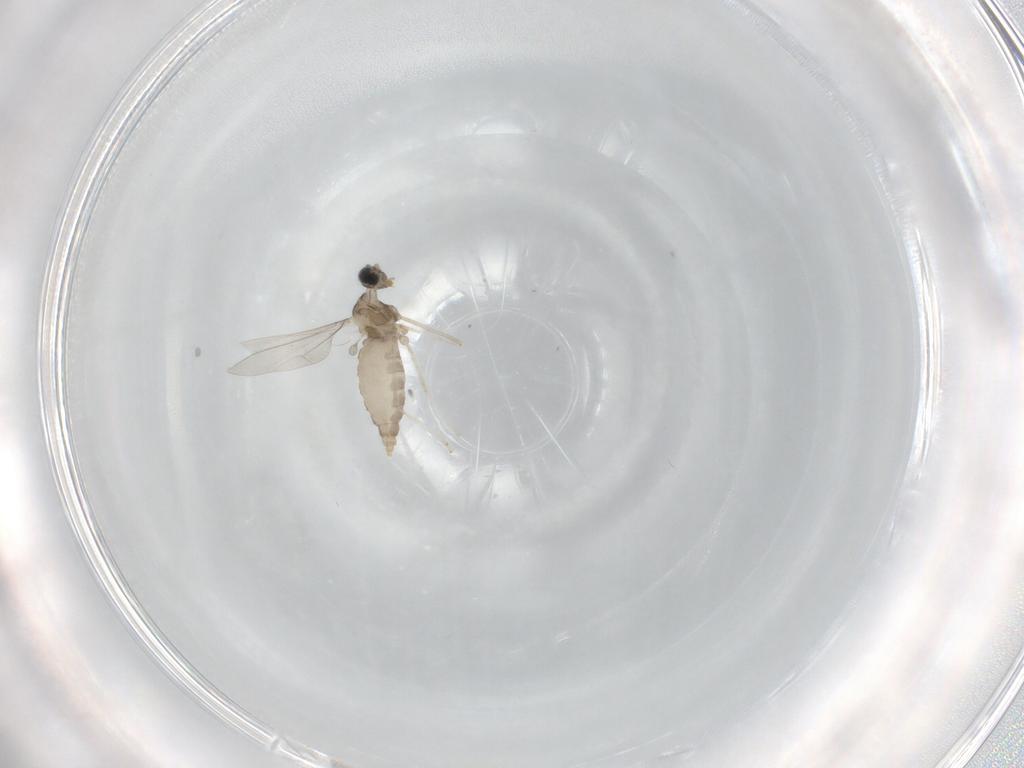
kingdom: Animalia
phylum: Arthropoda
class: Insecta
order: Diptera
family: Cecidomyiidae
